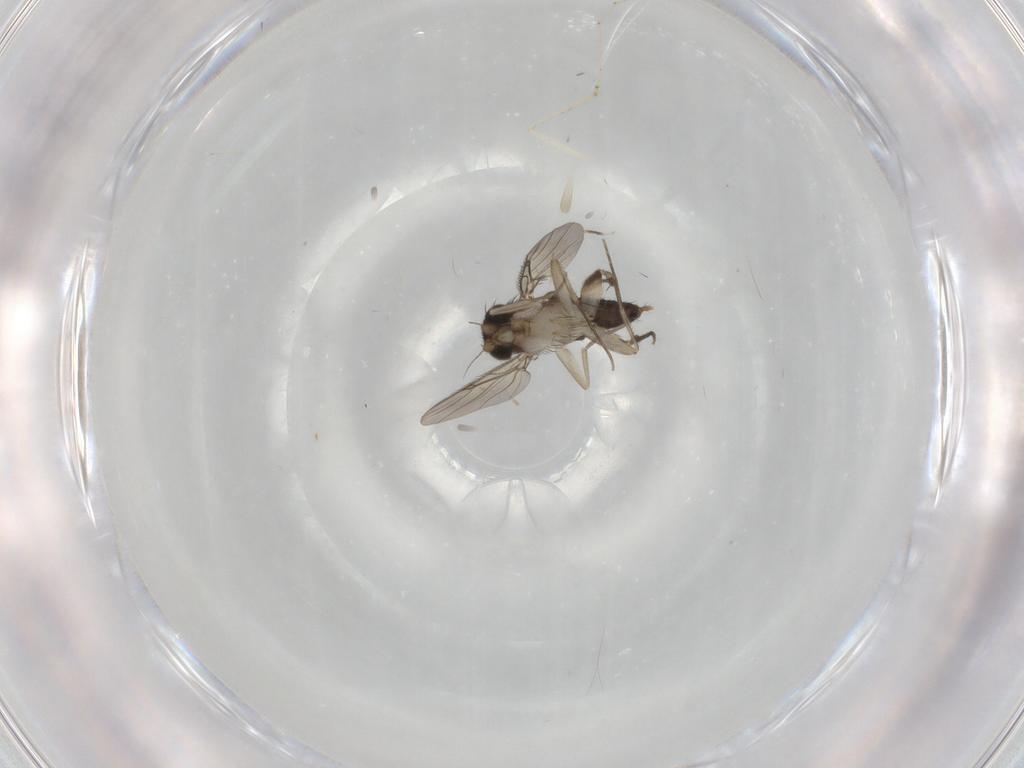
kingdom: Animalia
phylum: Arthropoda
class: Insecta
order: Diptera
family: Phoridae
